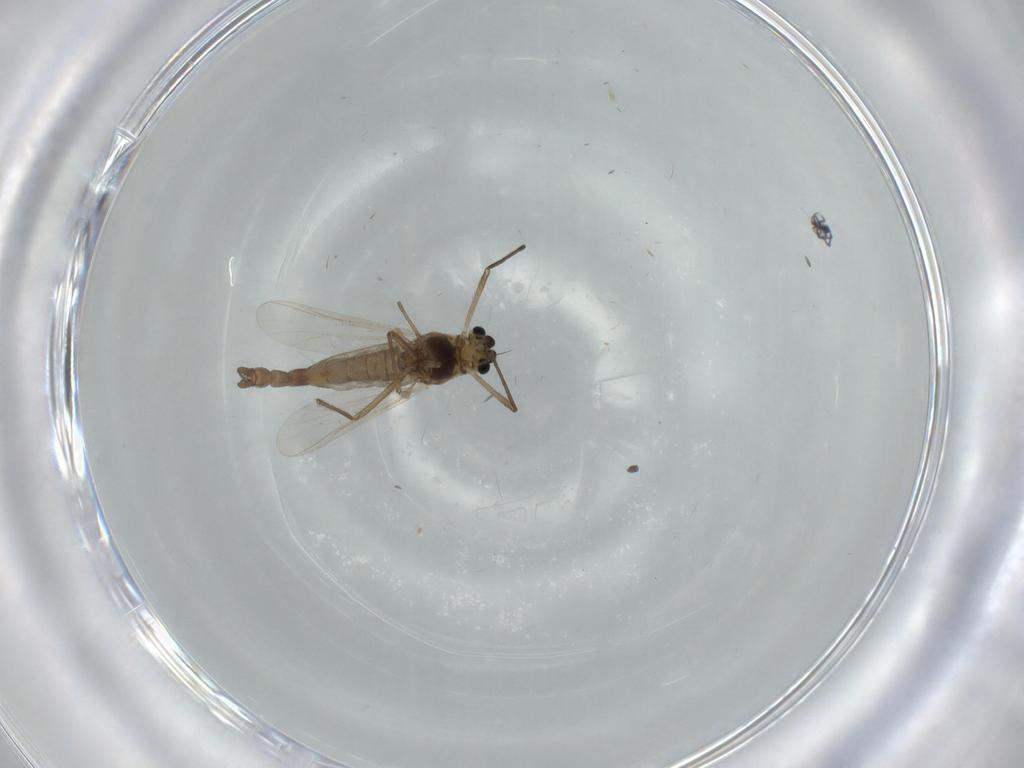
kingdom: Animalia
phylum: Arthropoda
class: Insecta
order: Diptera
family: Chironomidae
